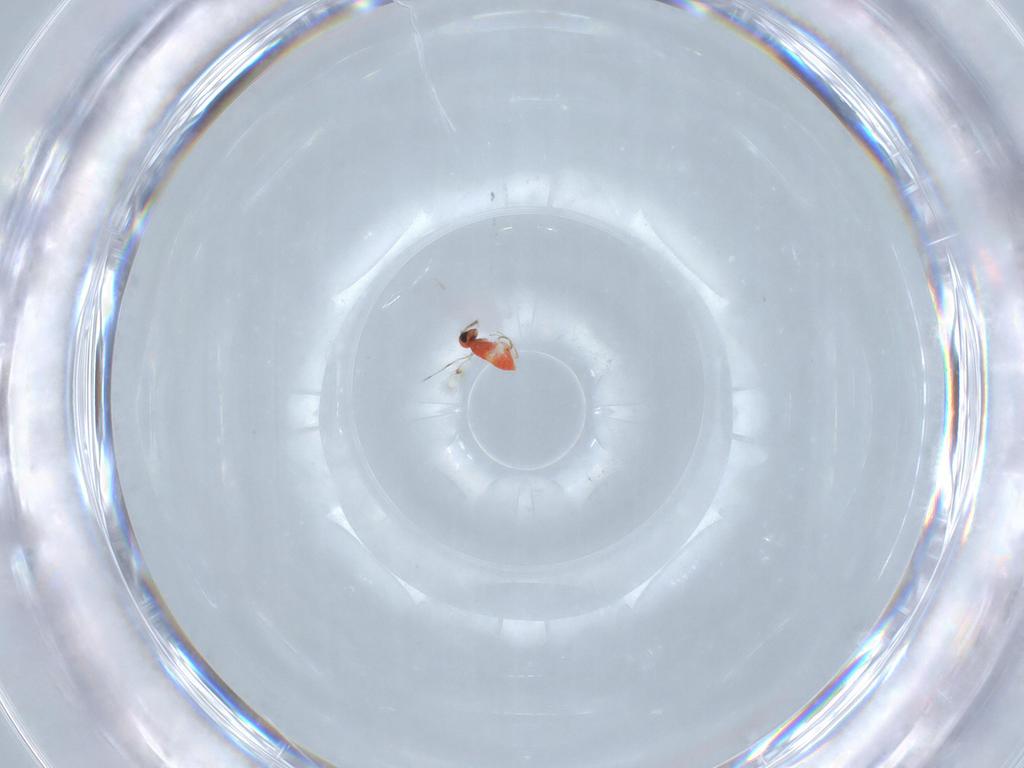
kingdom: Animalia
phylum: Arthropoda
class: Insecta
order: Hymenoptera
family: Trichogrammatidae
